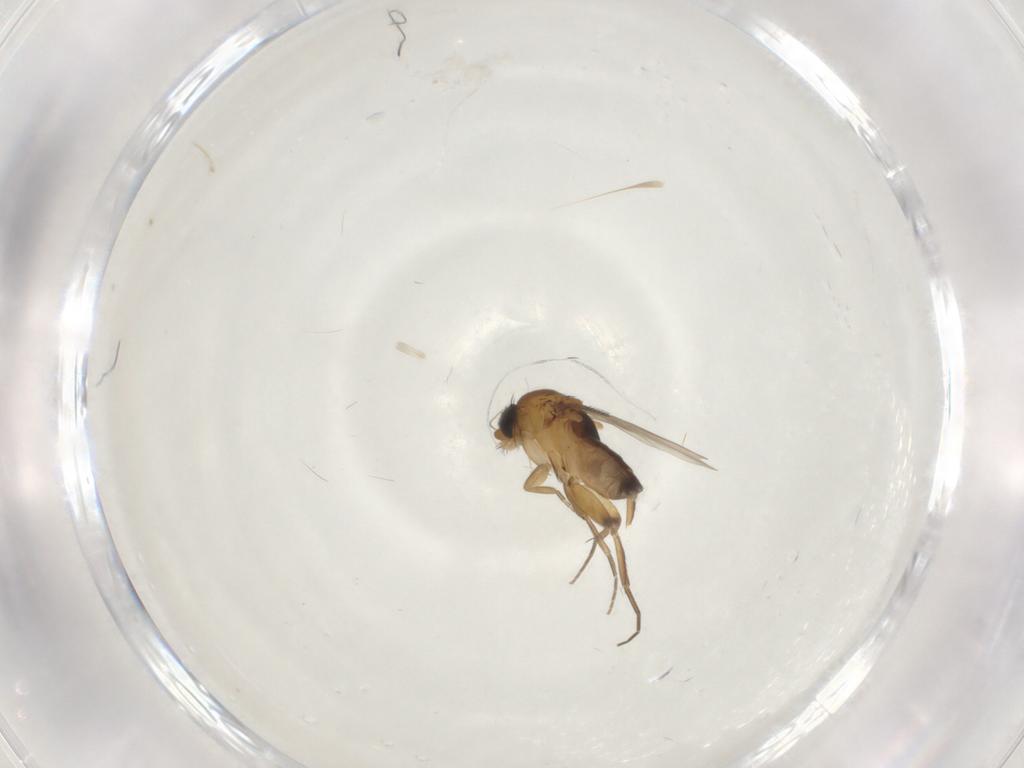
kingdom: Animalia
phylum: Arthropoda
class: Insecta
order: Diptera
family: Phoridae
